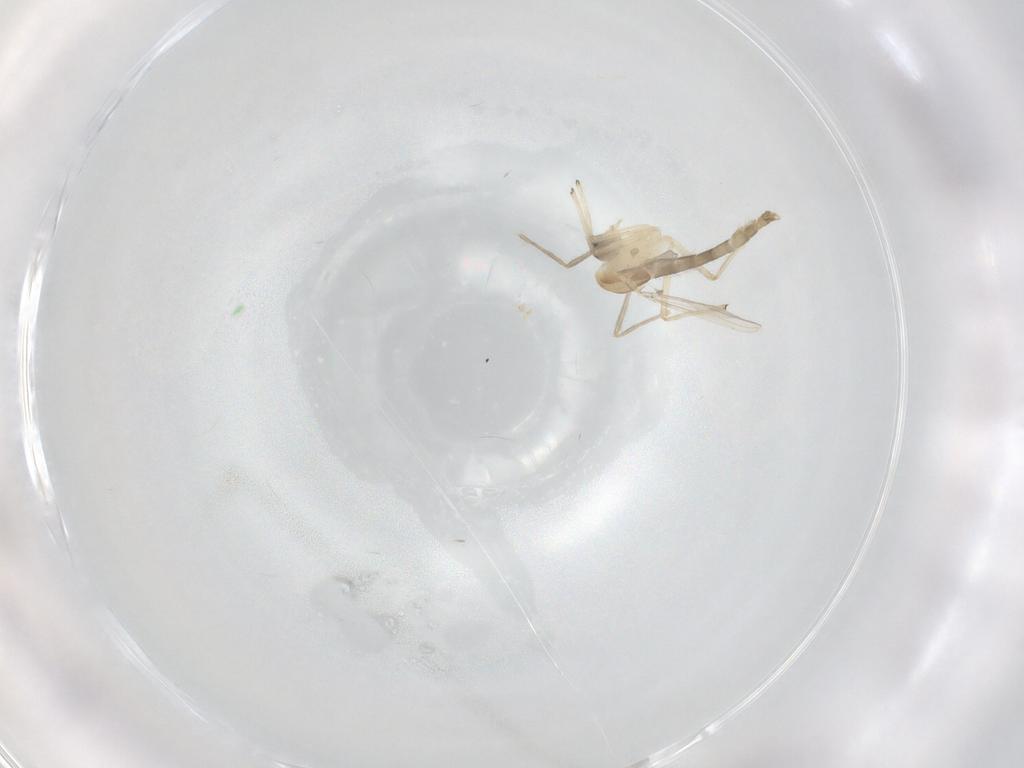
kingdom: Animalia
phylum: Arthropoda
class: Insecta
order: Diptera
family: Chironomidae
